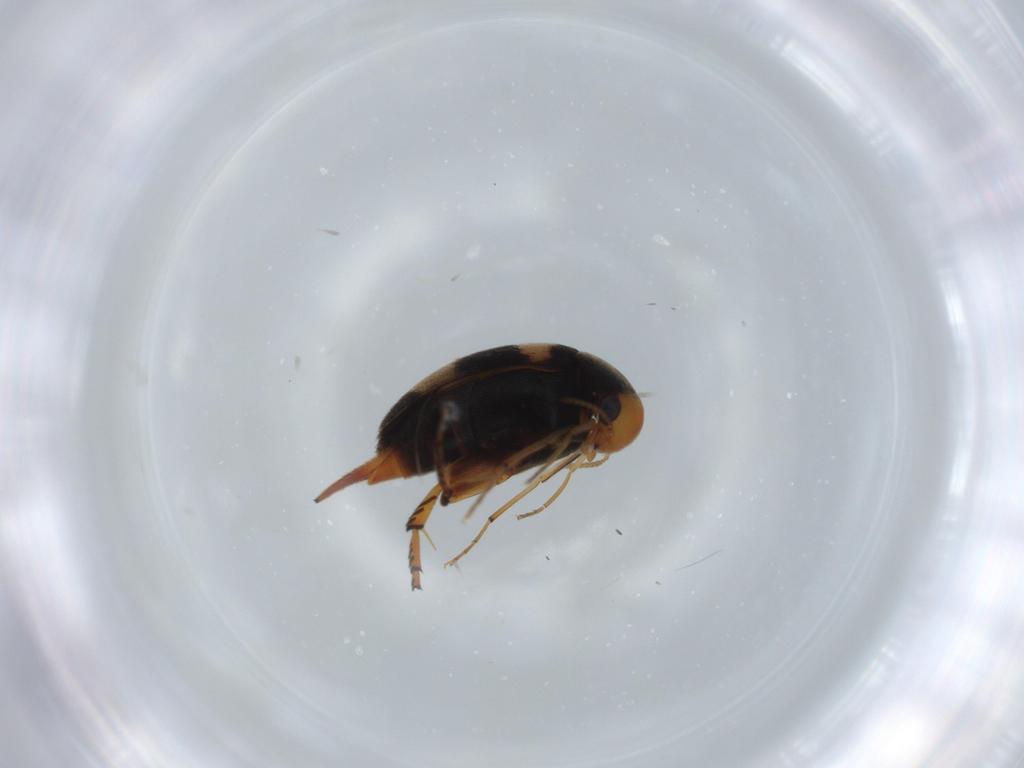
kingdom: Animalia
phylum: Arthropoda
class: Insecta
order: Coleoptera
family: Mordellidae
